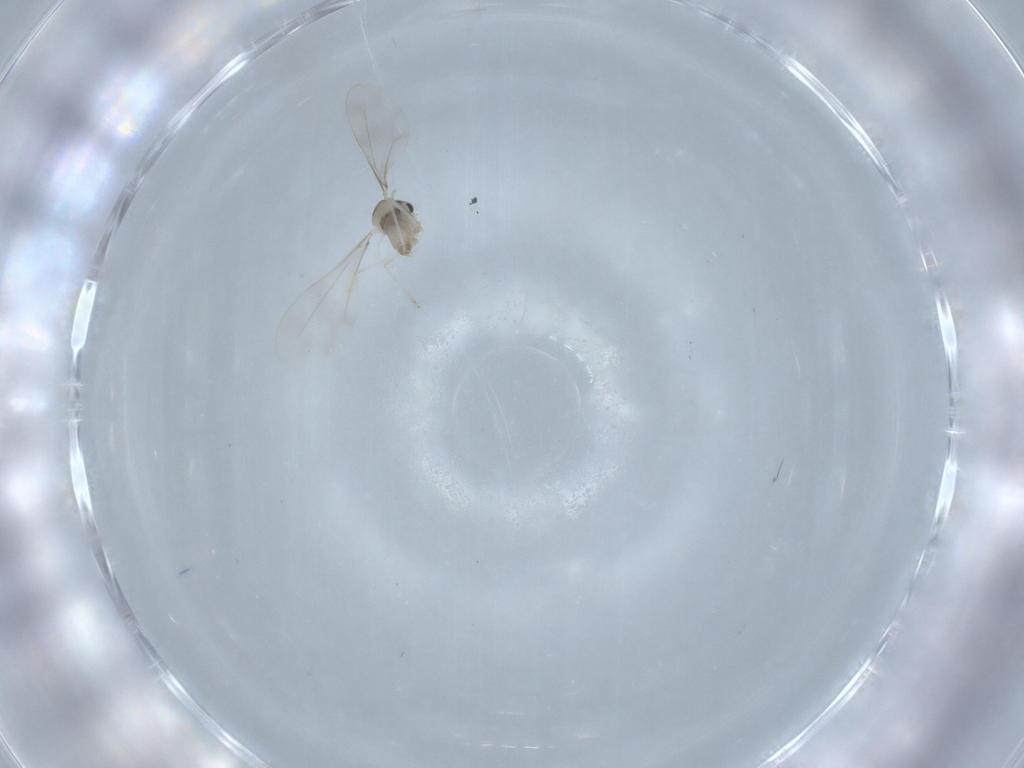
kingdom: Animalia
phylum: Arthropoda
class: Insecta
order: Diptera
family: Cecidomyiidae
